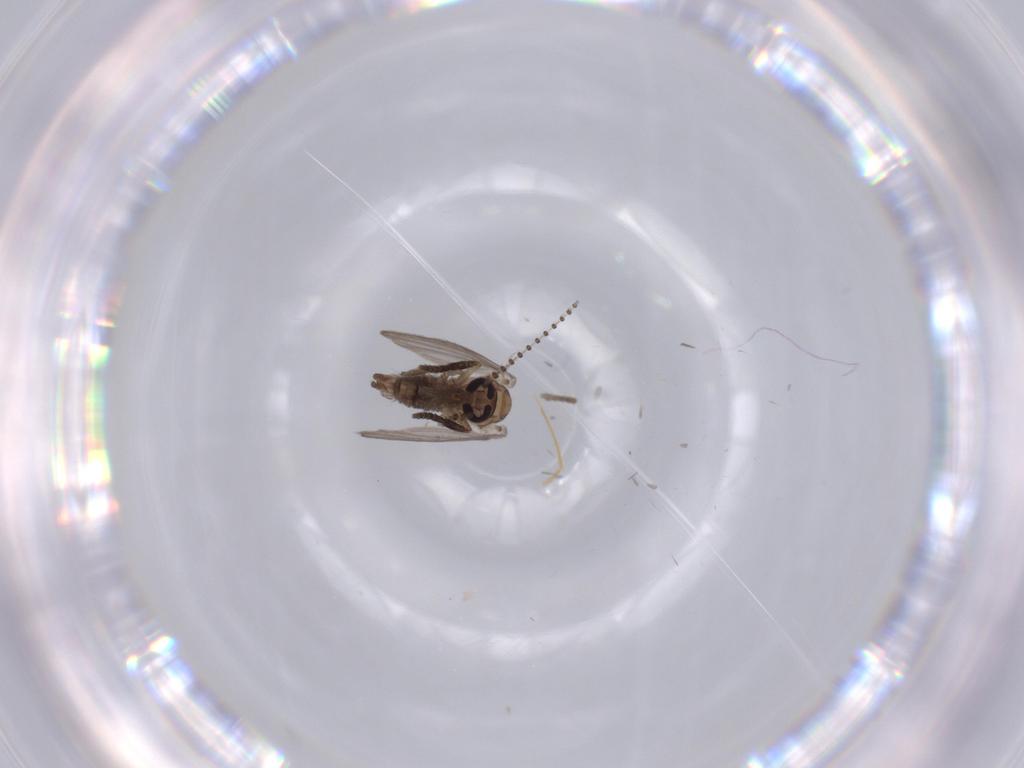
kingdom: Animalia
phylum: Arthropoda
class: Insecta
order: Diptera
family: Psychodidae
